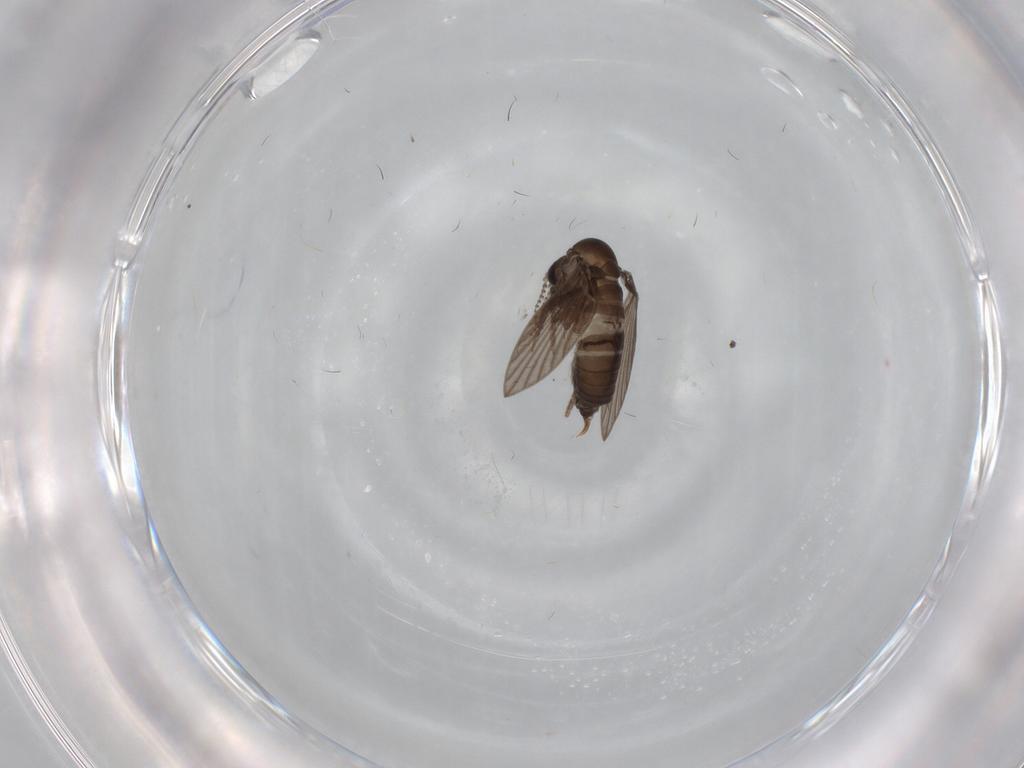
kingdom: Animalia
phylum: Arthropoda
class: Insecta
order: Diptera
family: Psychodidae
